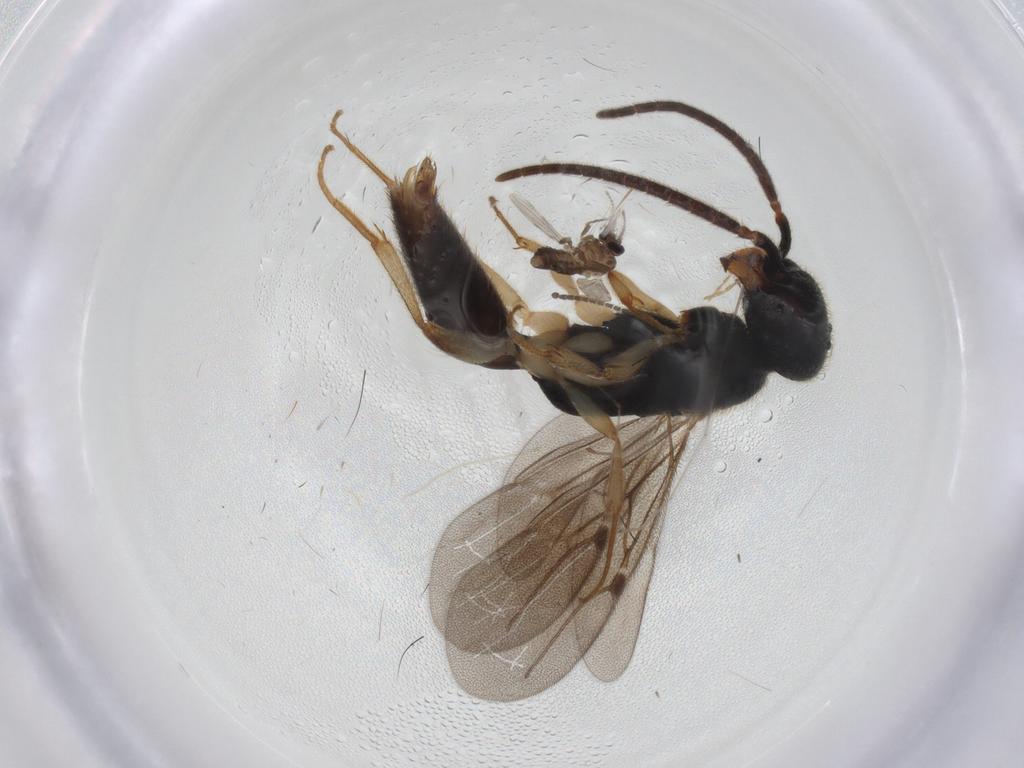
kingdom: Animalia
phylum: Arthropoda
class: Insecta
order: Diptera
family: Ceratopogonidae
